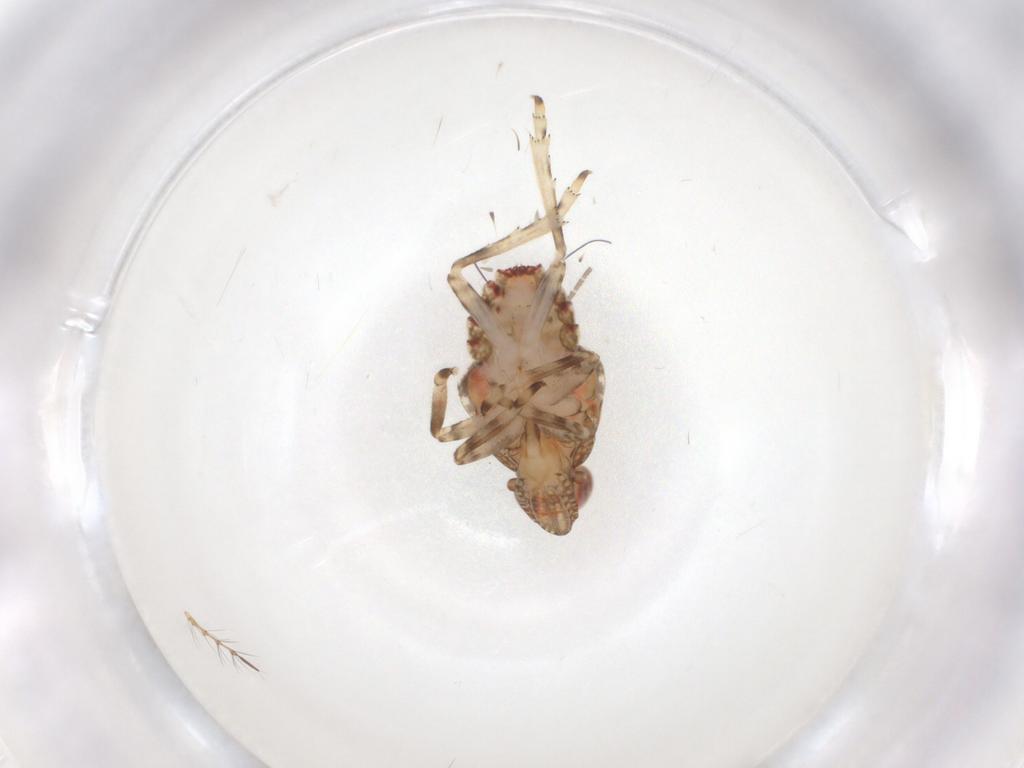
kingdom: Animalia
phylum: Arthropoda
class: Insecta
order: Hemiptera
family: Tropiduchidae
